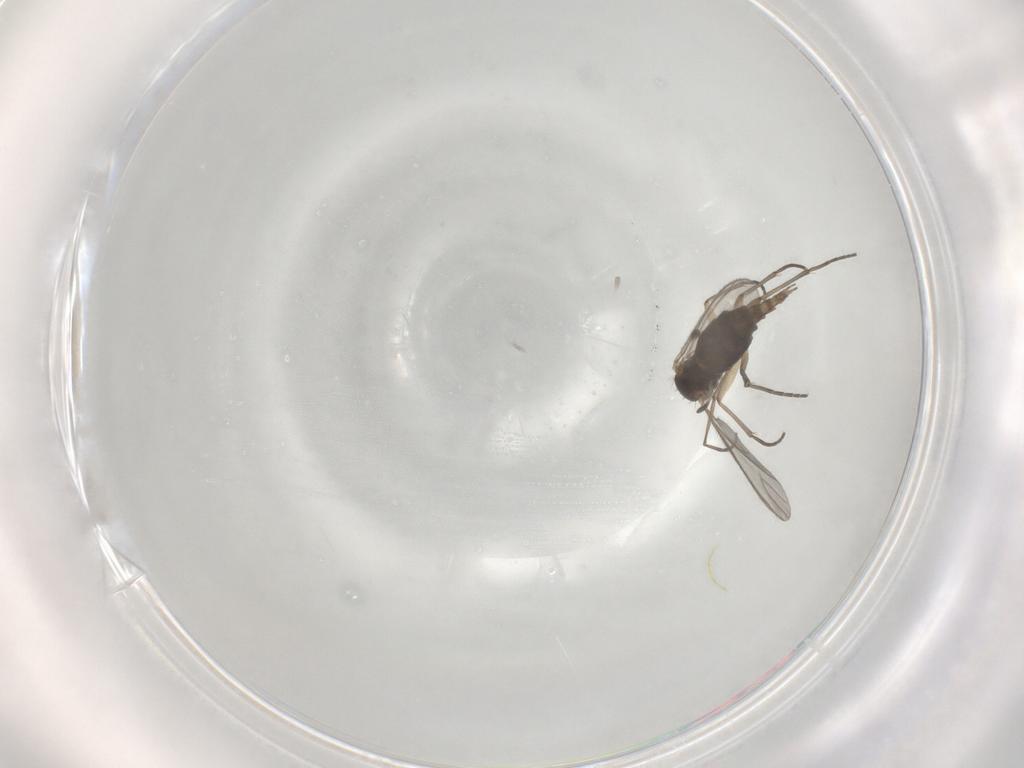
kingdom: Animalia
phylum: Arthropoda
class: Insecta
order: Diptera
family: Sciaridae
